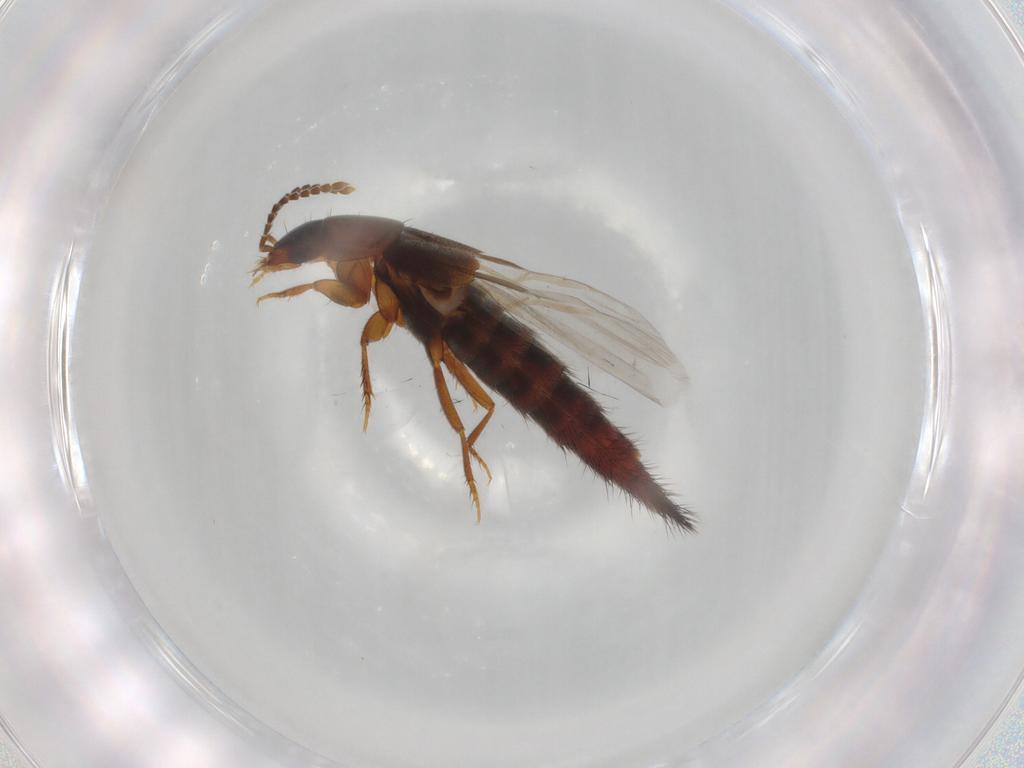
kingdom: Animalia
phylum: Arthropoda
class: Insecta
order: Coleoptera
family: Staphylinidae
